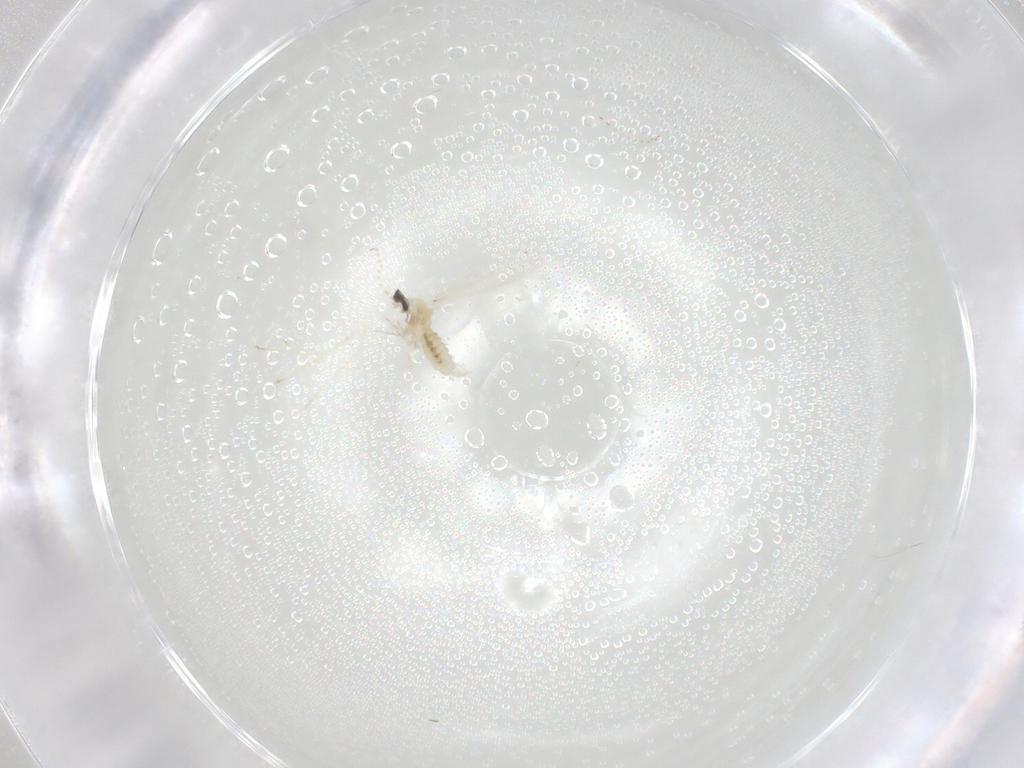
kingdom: Animalia
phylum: Arthropoda
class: Insecta
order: Diptera
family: Cecidomyiidae
